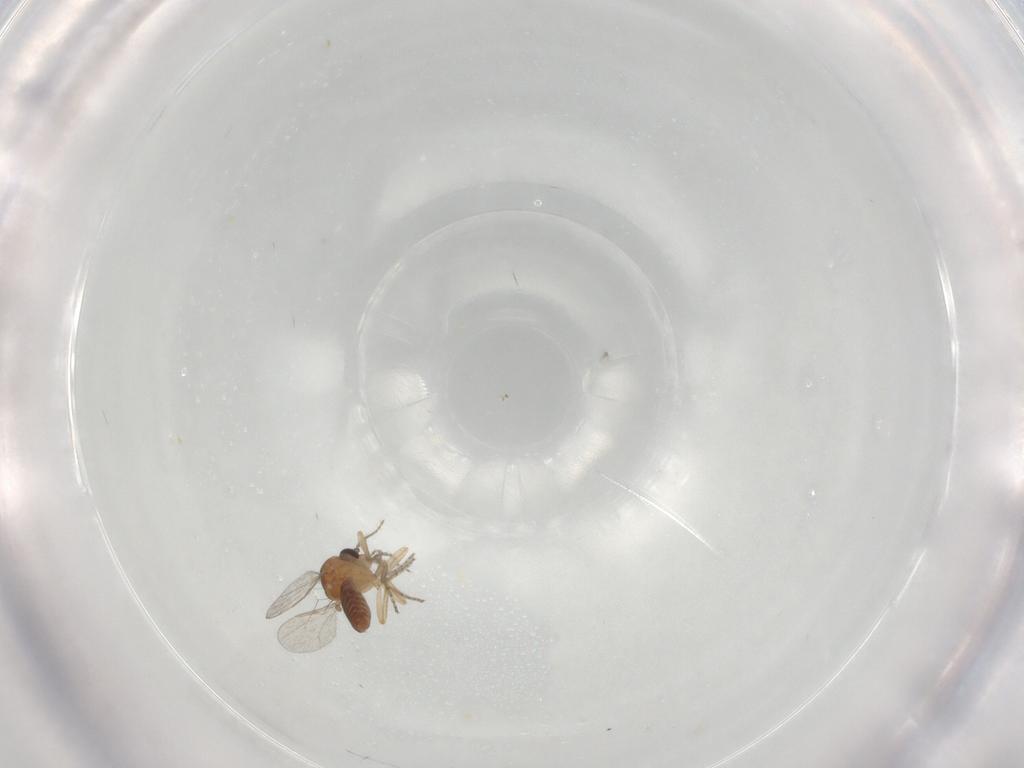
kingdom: Animalia
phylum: Arthropoda
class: Insecta
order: Diptera
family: Ceratopogonidae
